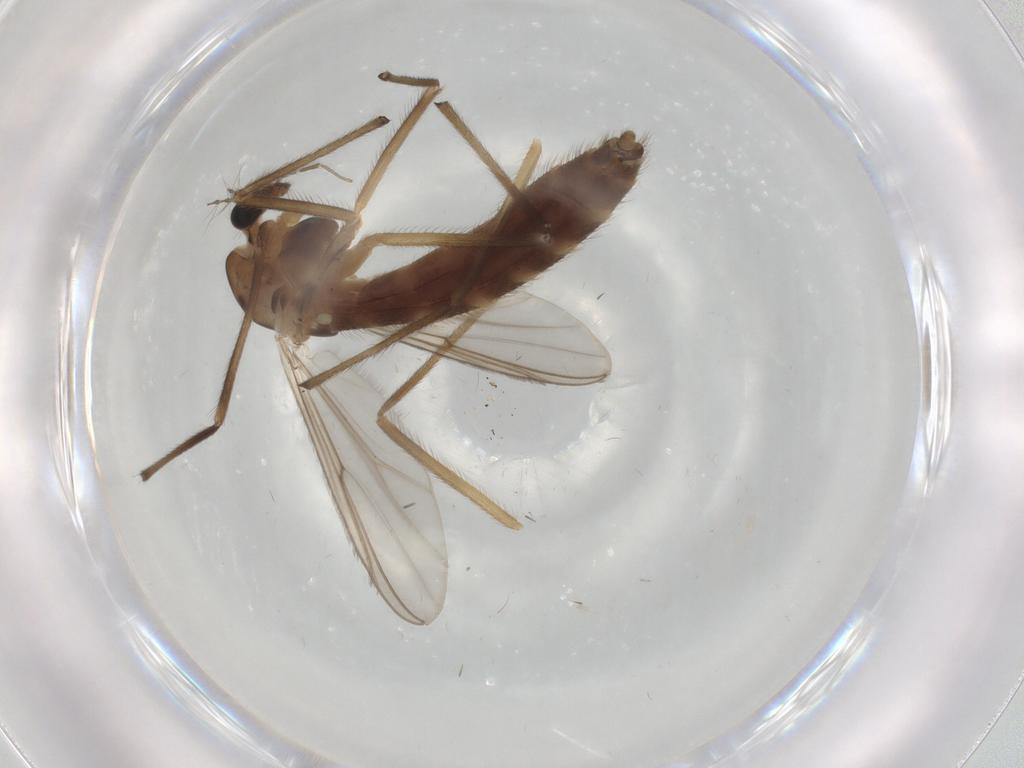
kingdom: Animalia
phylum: Arthropoda
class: Insecta
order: Diptera
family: Chironomidae
